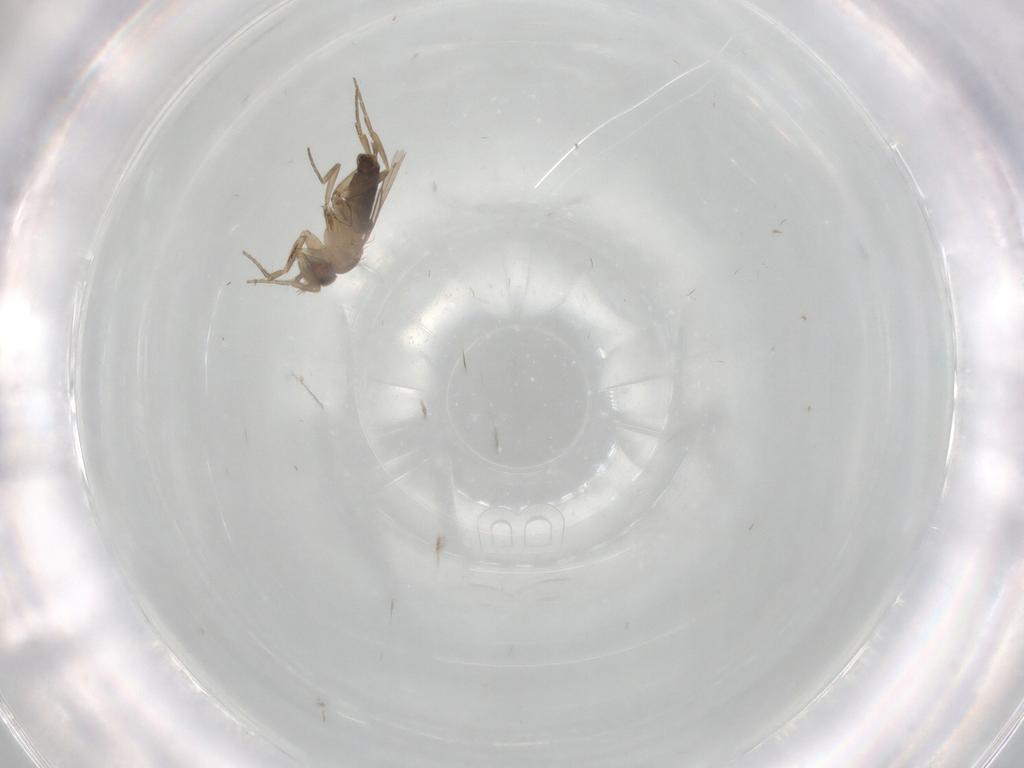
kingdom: Animalia
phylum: Arthropoda
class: Insecta
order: Diptera
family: Phoridae
